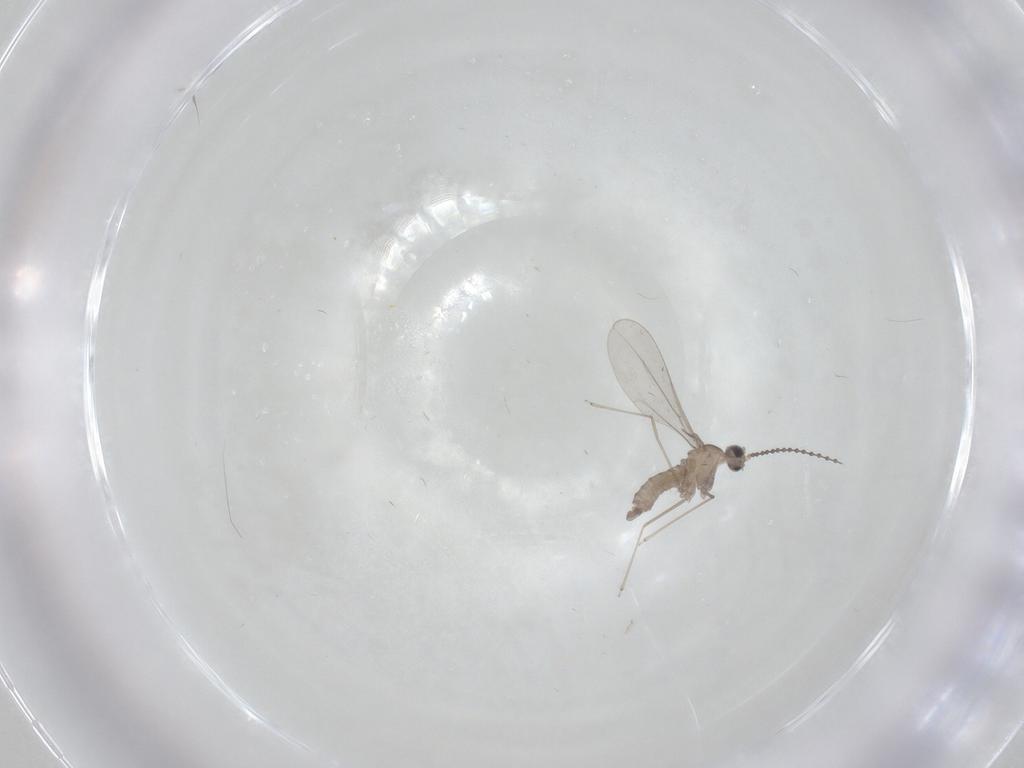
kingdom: Animalia
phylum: Arthropoda
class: Insecta
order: Diptera
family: Cecidomyiidae
